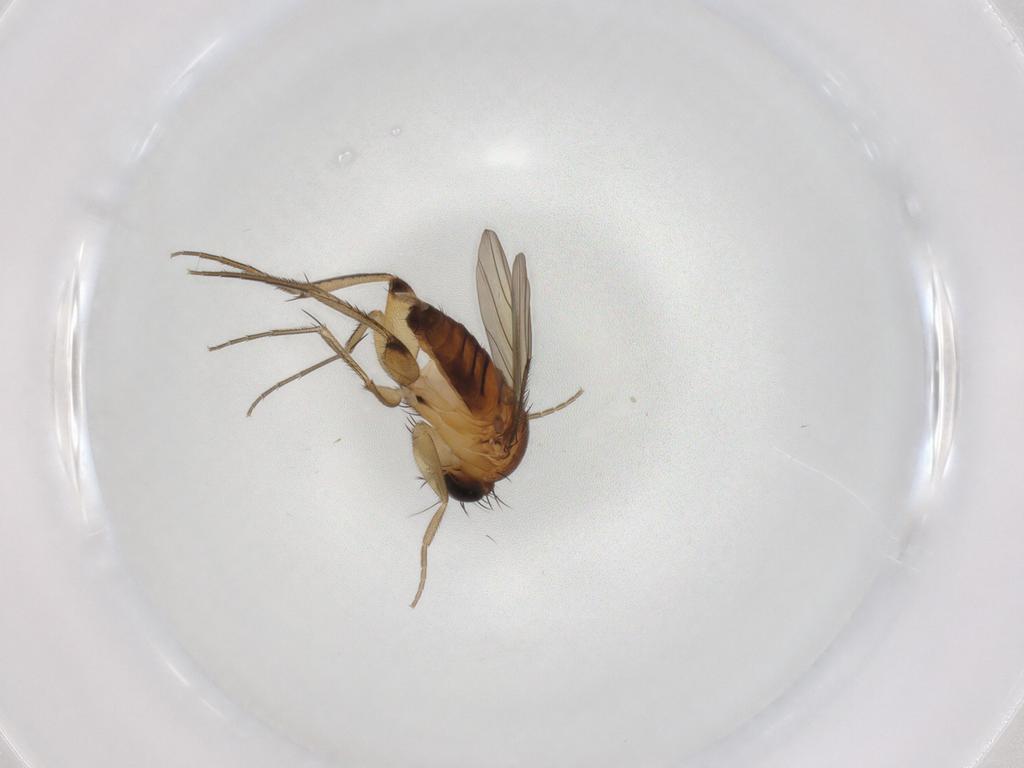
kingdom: Animalia
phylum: Arthropoda
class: Insecta
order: Diptera
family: Phoridae
